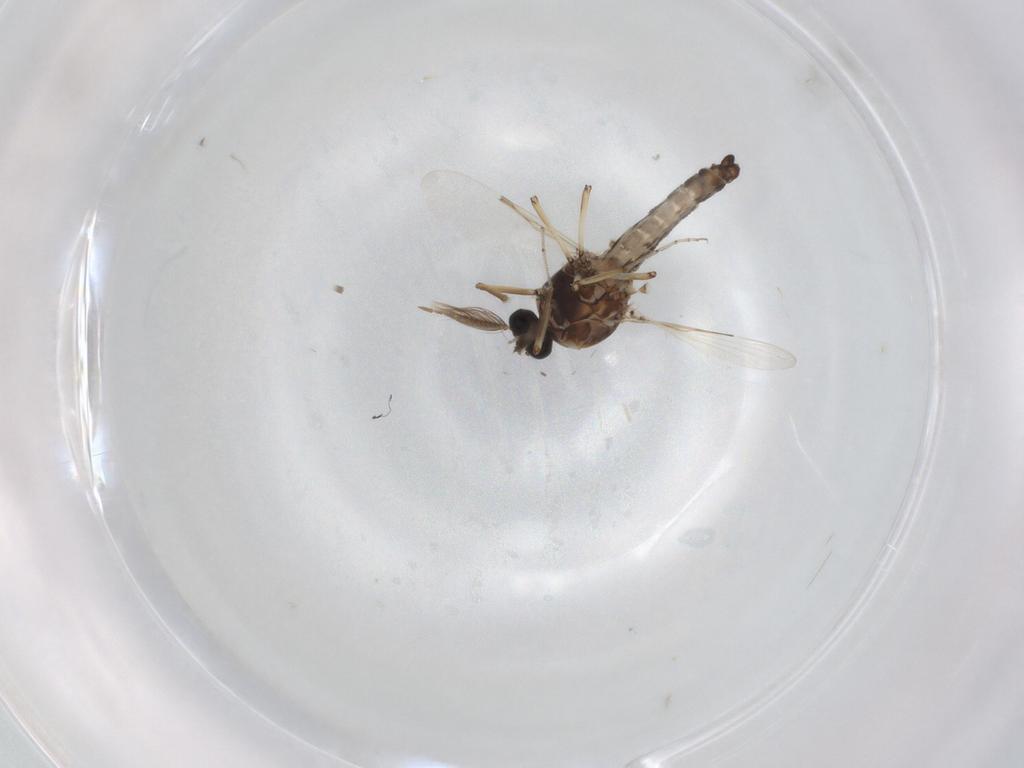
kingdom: Animalia
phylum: Arthropoda
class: Insecta
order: Diptera
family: Ceratopogonidae
